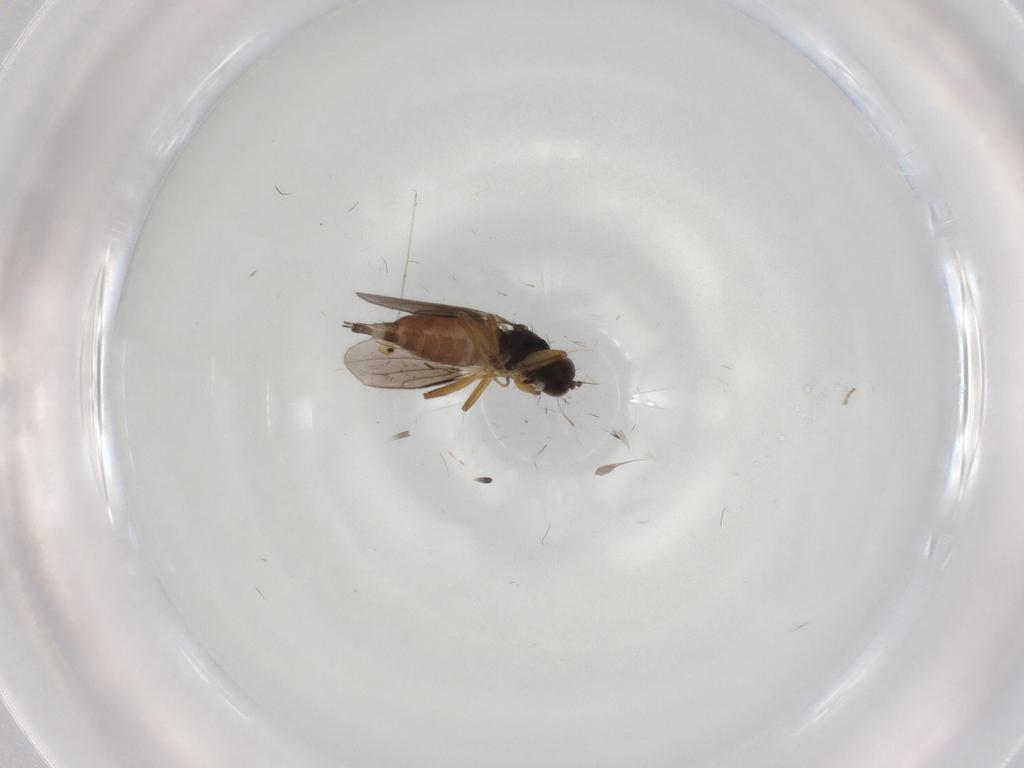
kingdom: Animalia
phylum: Arthropoda
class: Insecta
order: Diptera
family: Hybotidae
